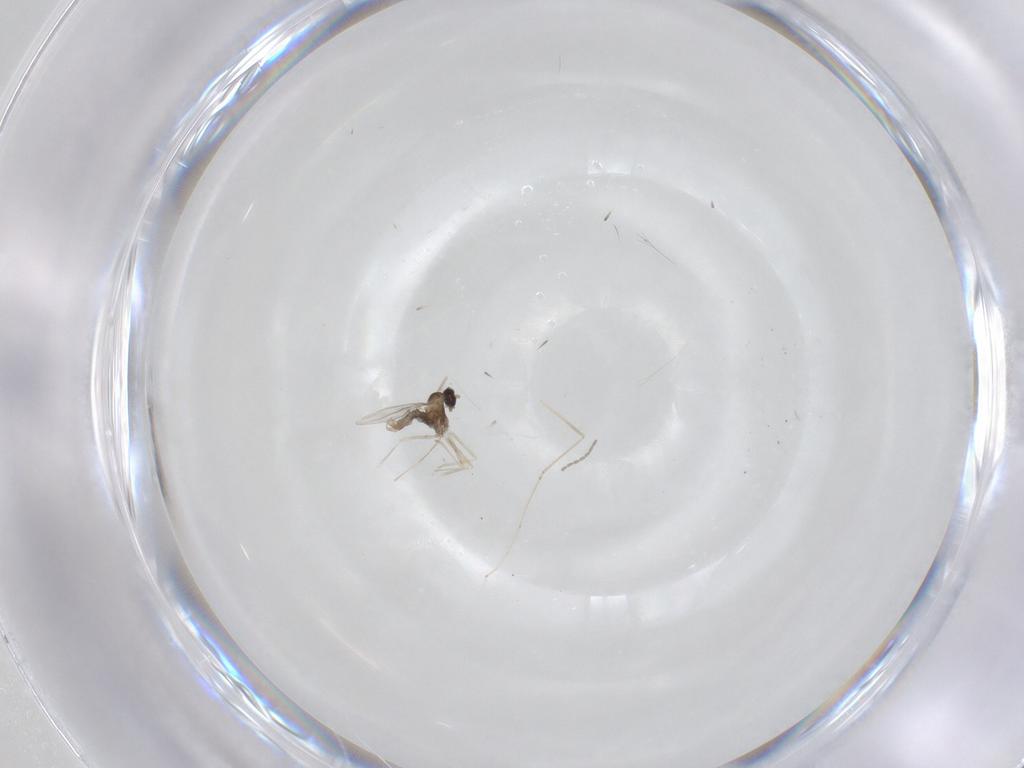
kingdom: Animalia
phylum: Arthropoda
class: Insecta
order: Diptera
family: Cecidomyiidae
